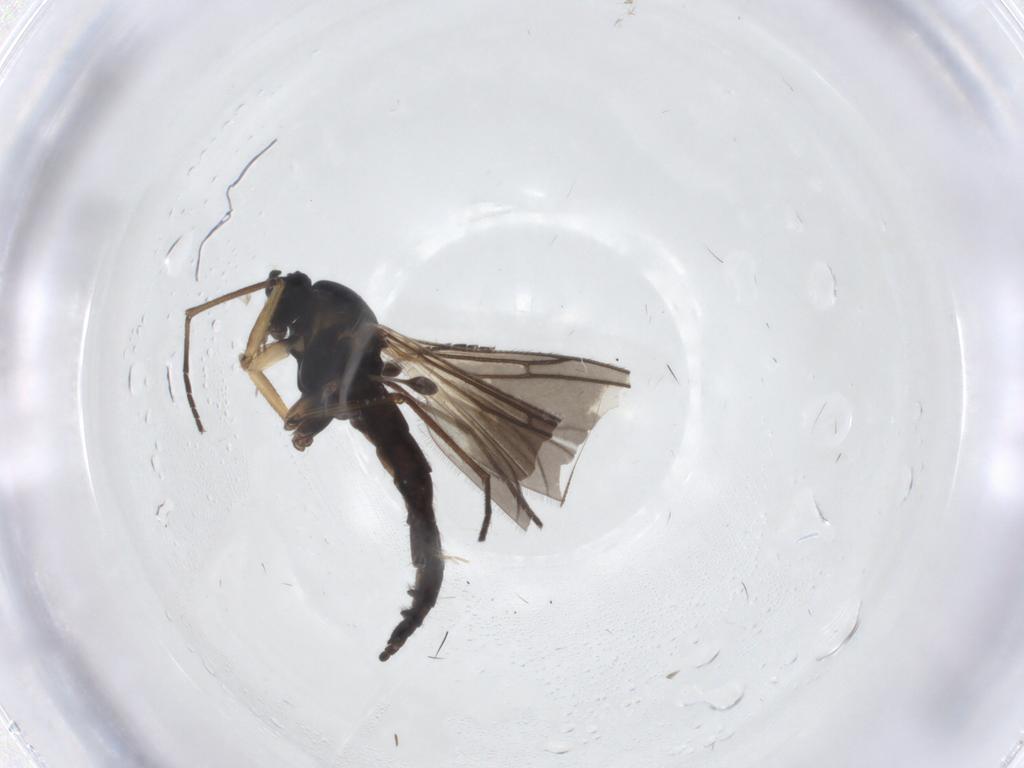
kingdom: Animalia
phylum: Arthropoda
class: Insecta
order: Diptera
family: Chironomidae
